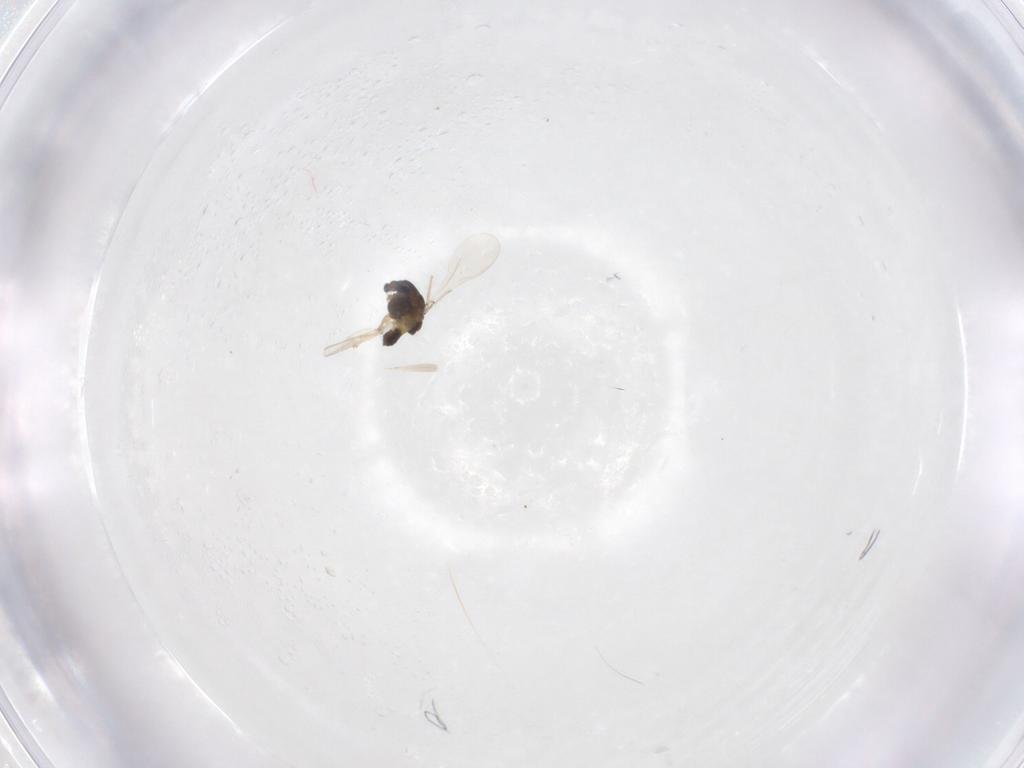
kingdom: Animalia
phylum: Arthropoda
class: Insecta
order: Diptera
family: Chironomidae
